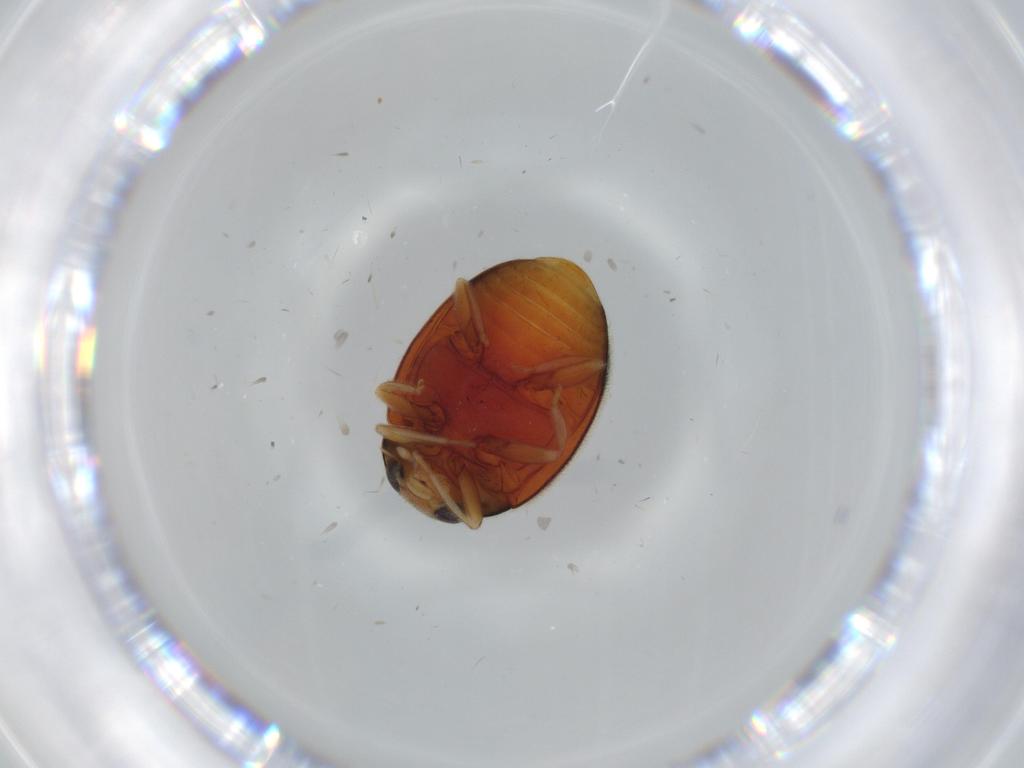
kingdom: Animalia
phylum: Arthropoda
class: Insecta
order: Coleoptera
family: Coccinellidae
